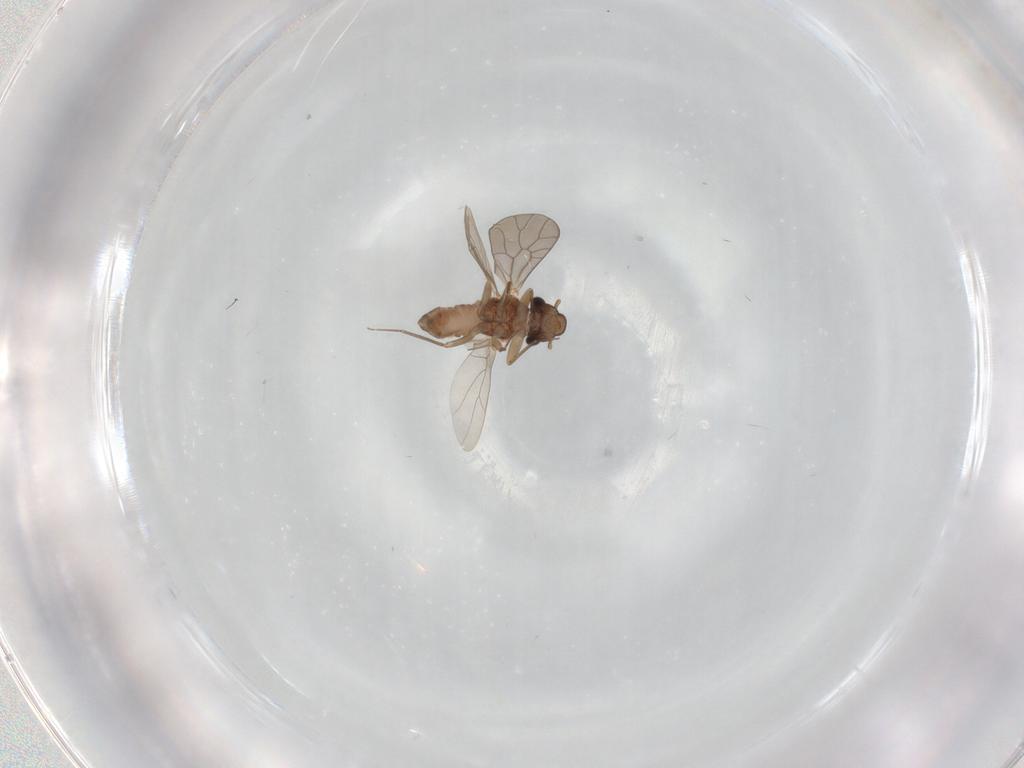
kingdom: Animalia
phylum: Arthropoda
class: Insecta
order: Psocodea
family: Lepidopsocidae
